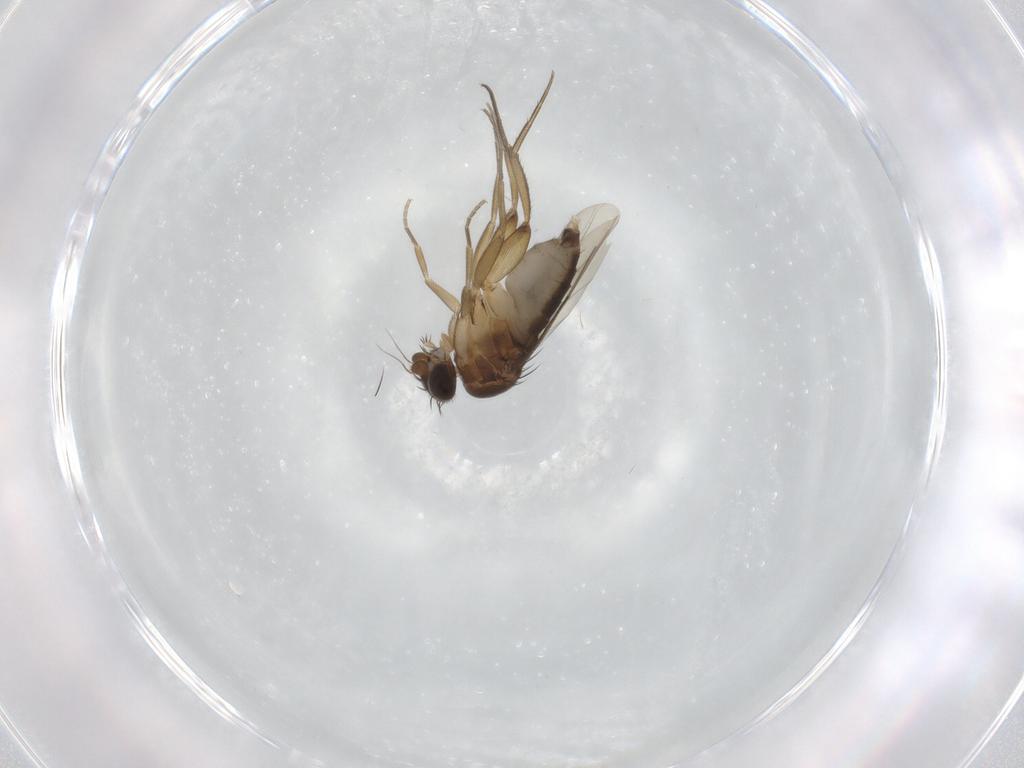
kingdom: Animalia
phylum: Arthropoda
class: Insecta
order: Diptera
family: Phoridae
